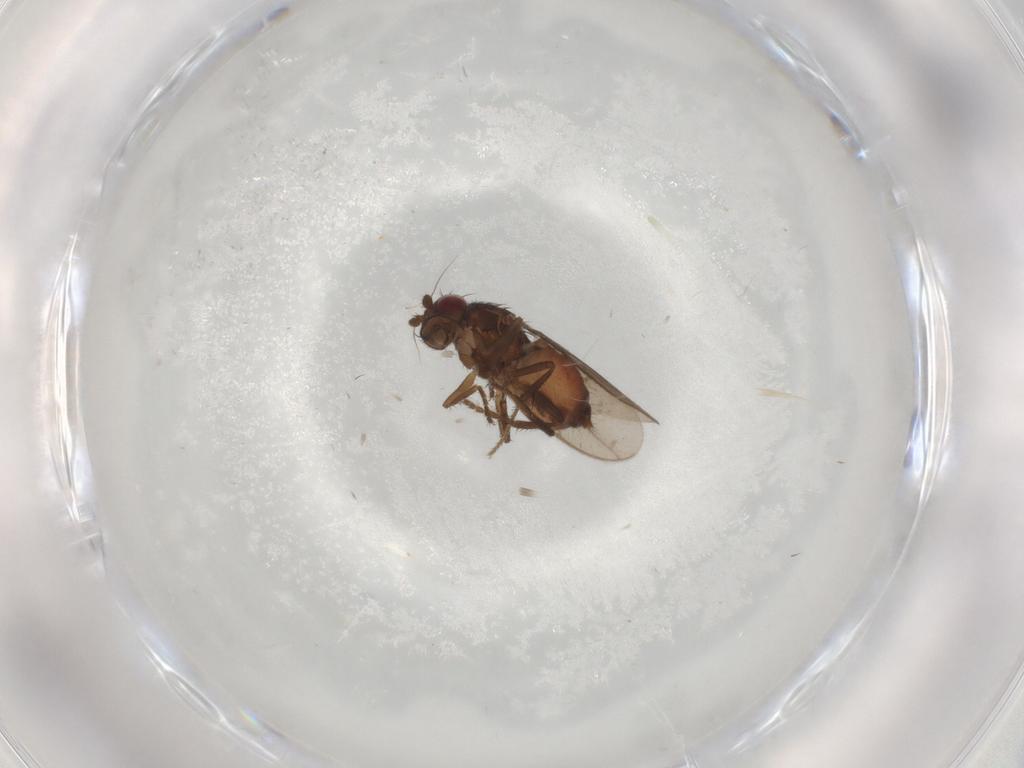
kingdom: Animalia
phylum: Arthropoda
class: Insecta
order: Diptera
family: Sphaeroceridae
